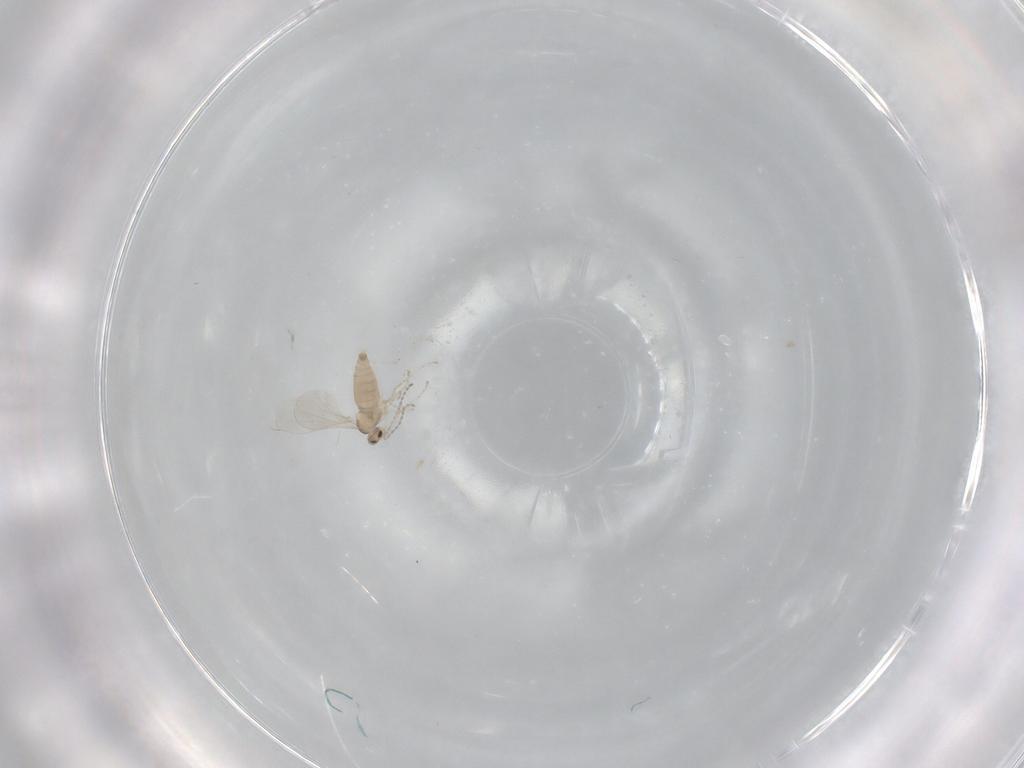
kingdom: Animalia
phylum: Arthropoda
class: Insecta
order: Diptera
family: Cecidomyiidae
